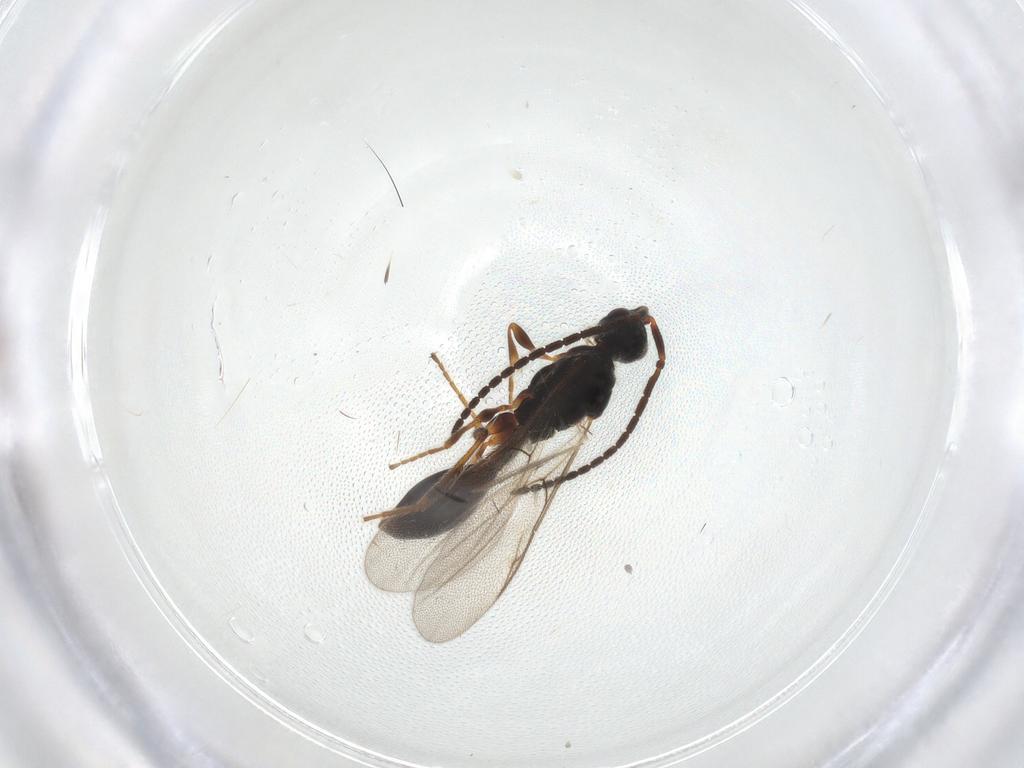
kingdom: Animalia
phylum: Arthropoda
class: Insecta
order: Hymenoptera
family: Diapriidae
